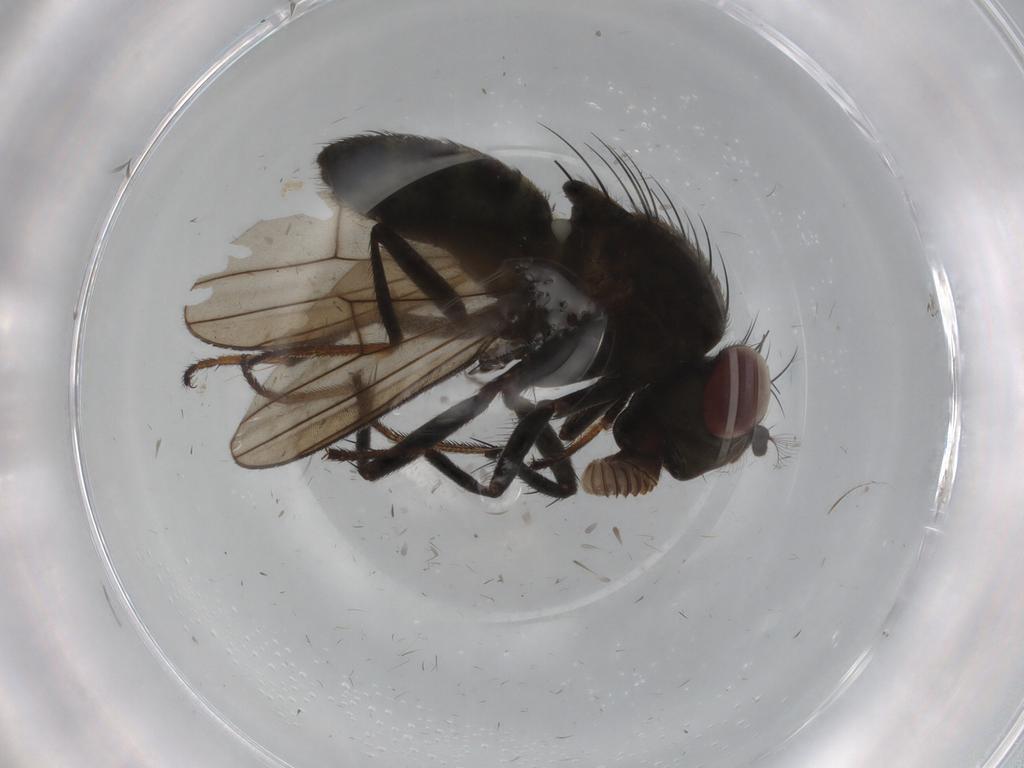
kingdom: Animalia
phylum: Arthropoda
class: Insecta
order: Diptera
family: Ephydridae
